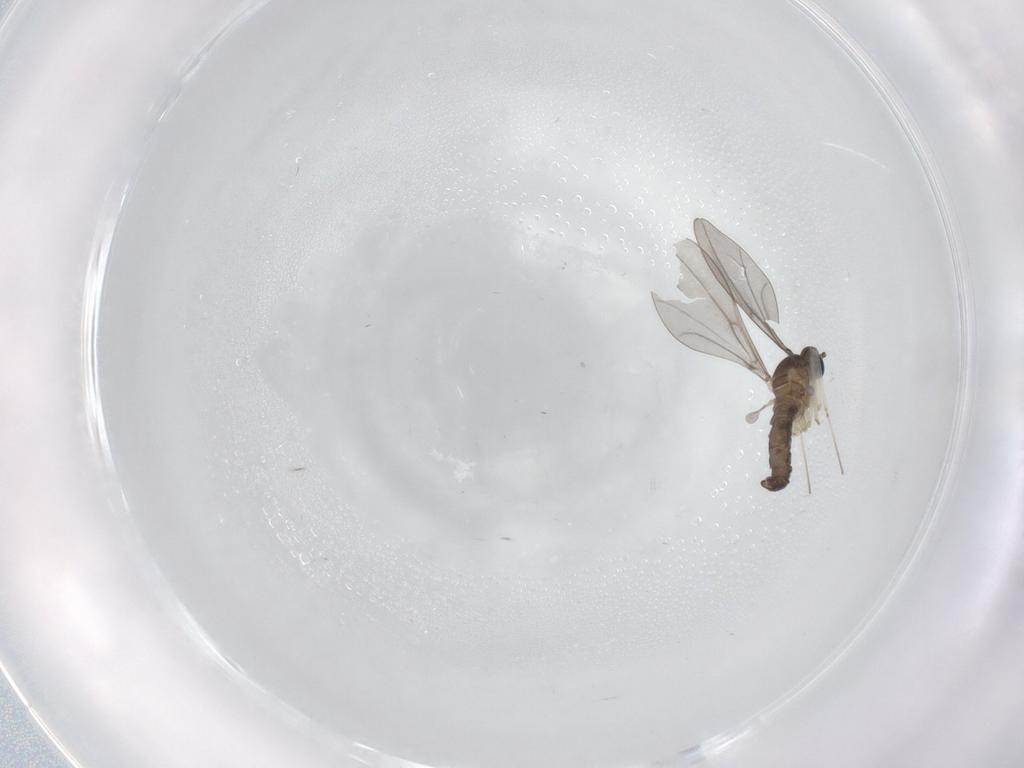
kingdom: Animalia
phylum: Arthropoda
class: Insecta
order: Diptera
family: Cecidomyiidae
